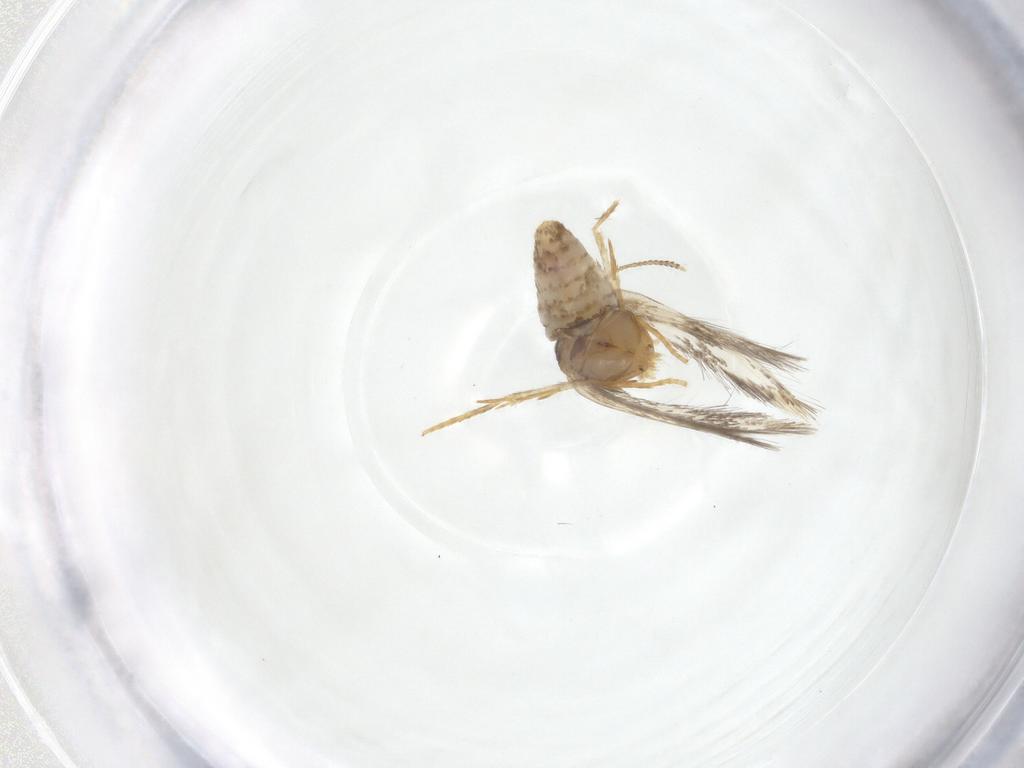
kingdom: Animalia
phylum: Arthropoda
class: Insecta
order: Lepidoptera
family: Nepticulidae
